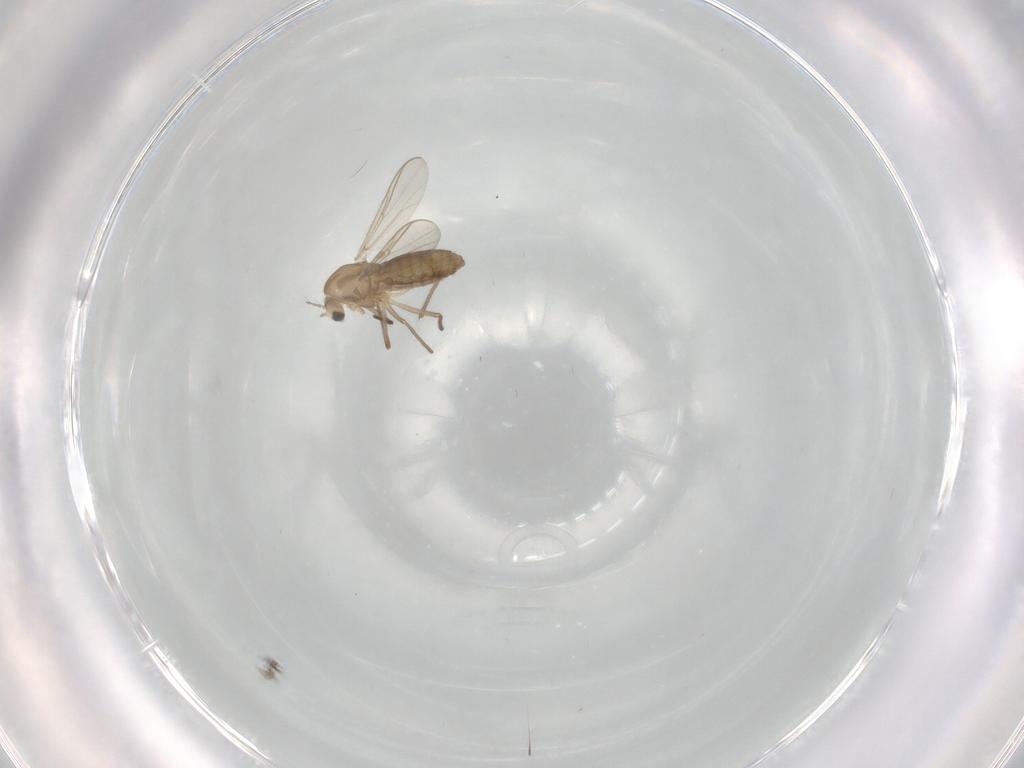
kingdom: Animalia
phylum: Arthropoda
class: Insecta
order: Diptera
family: Chironomidae
